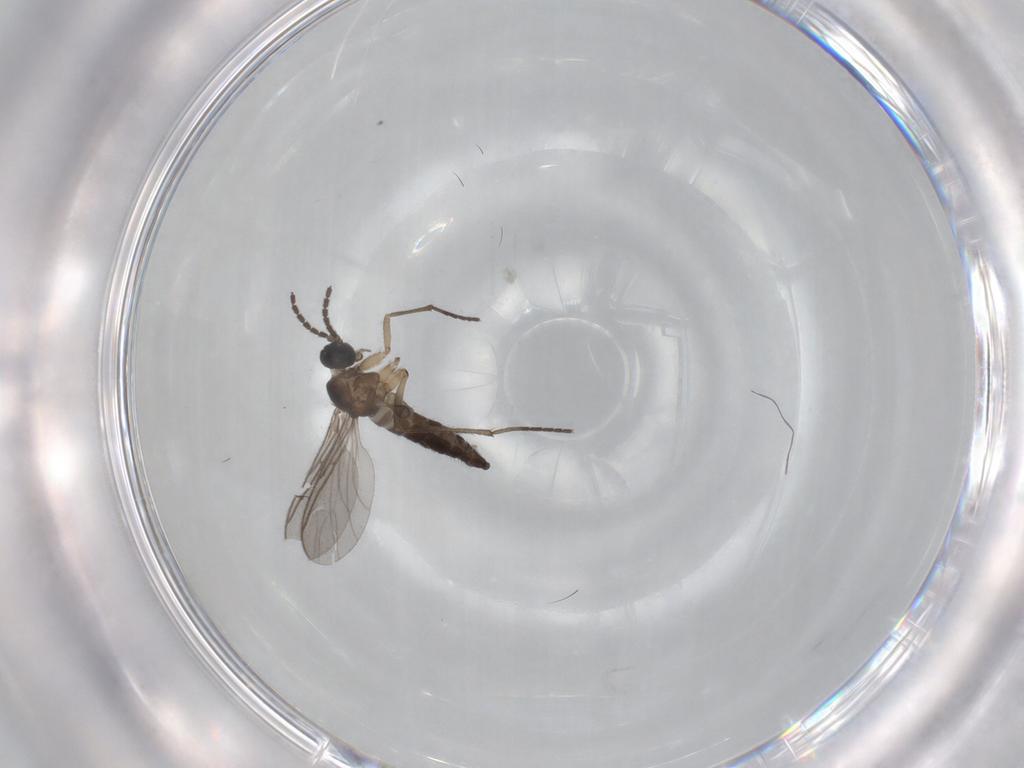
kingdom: Animalia
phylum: Arthropoda
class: Insecta
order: Diptera
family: Sciaridae
